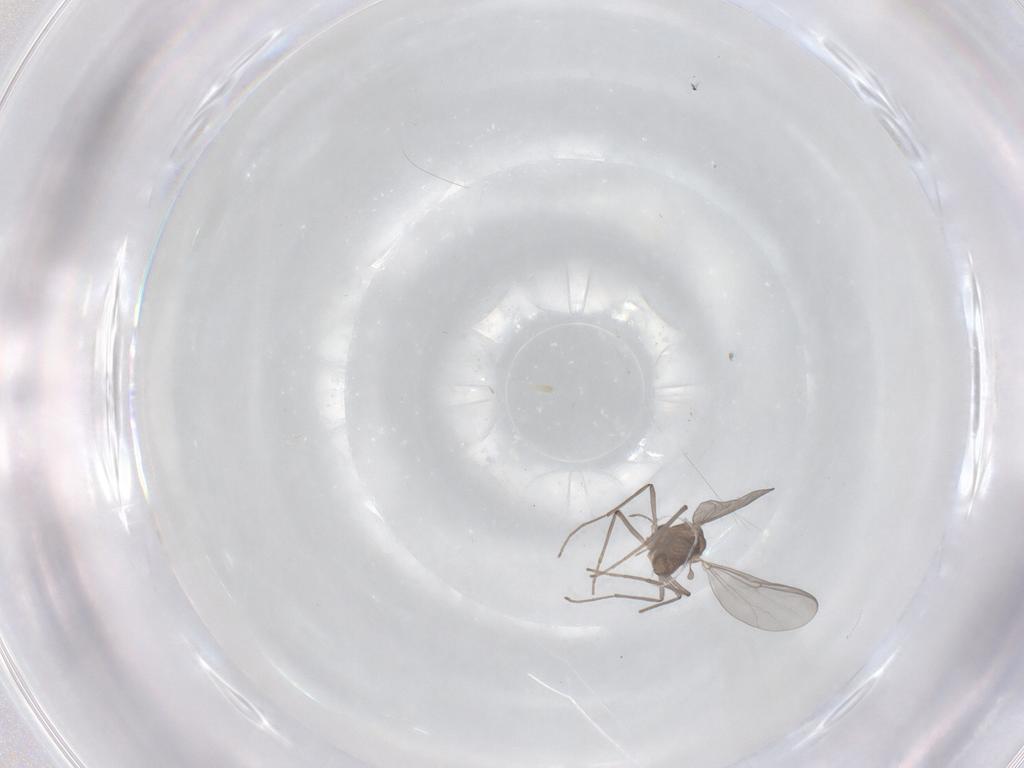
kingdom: Animalia
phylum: Arthropoda
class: Insecta
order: Diptera
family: Chironomidae
